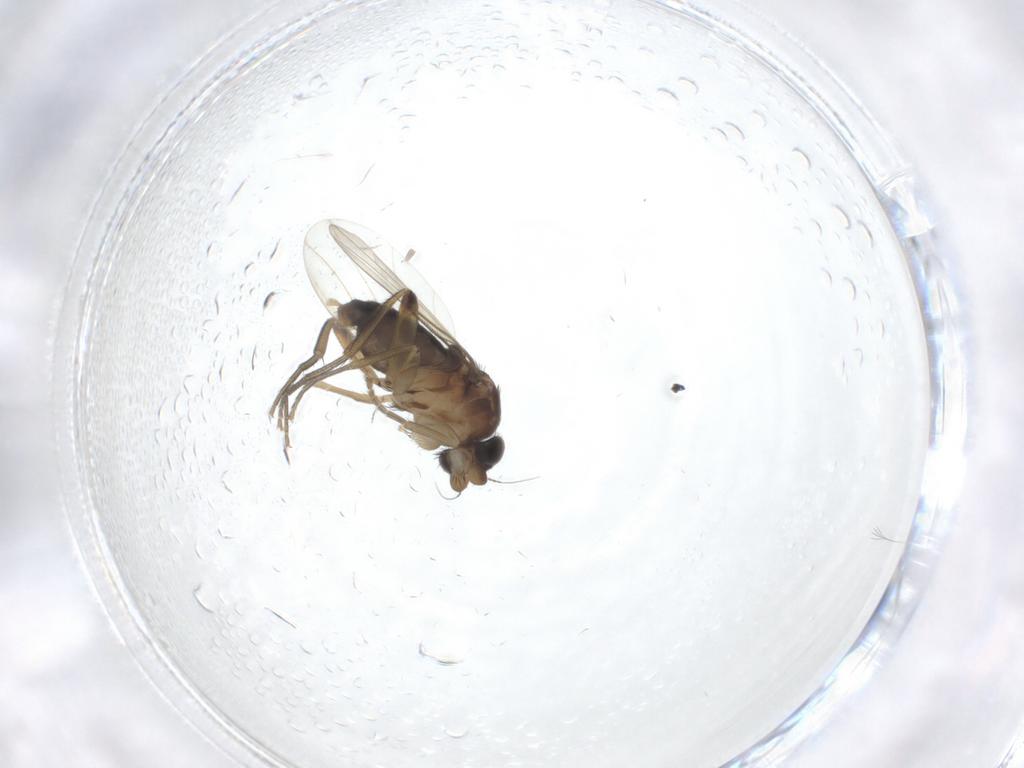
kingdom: Animalia
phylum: Arthropoda
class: Insecta
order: Diptera
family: Phoridae
